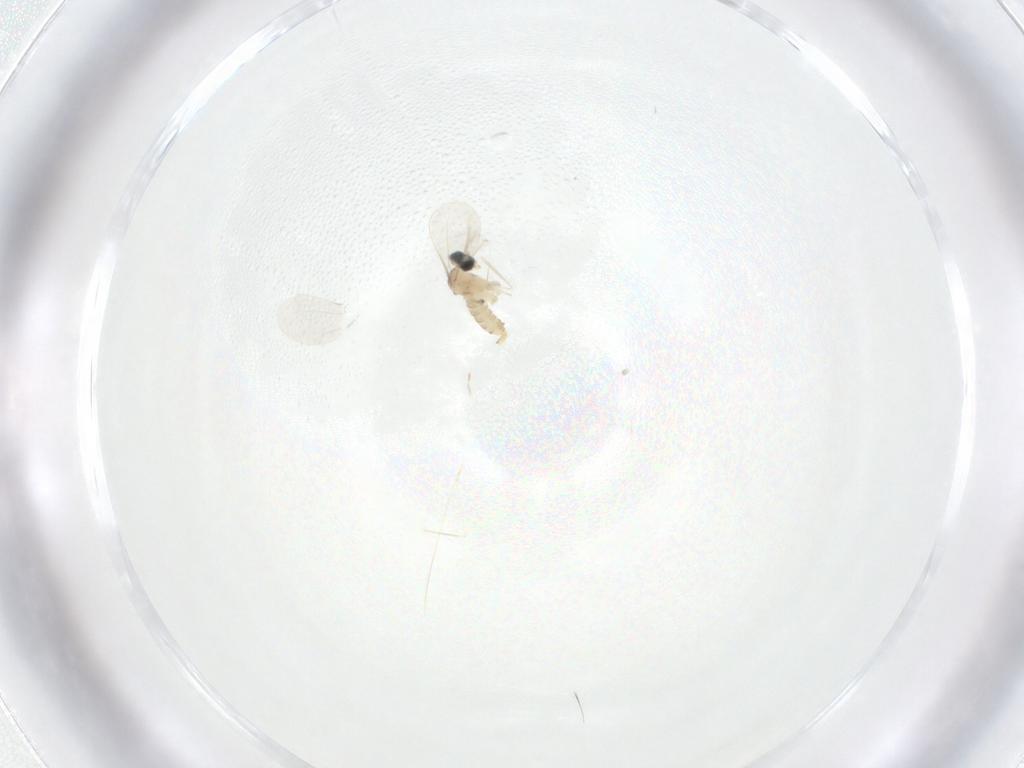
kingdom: Animalia
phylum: Arthropoda
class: Insecta
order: Diptera
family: Cecidomyiidae
